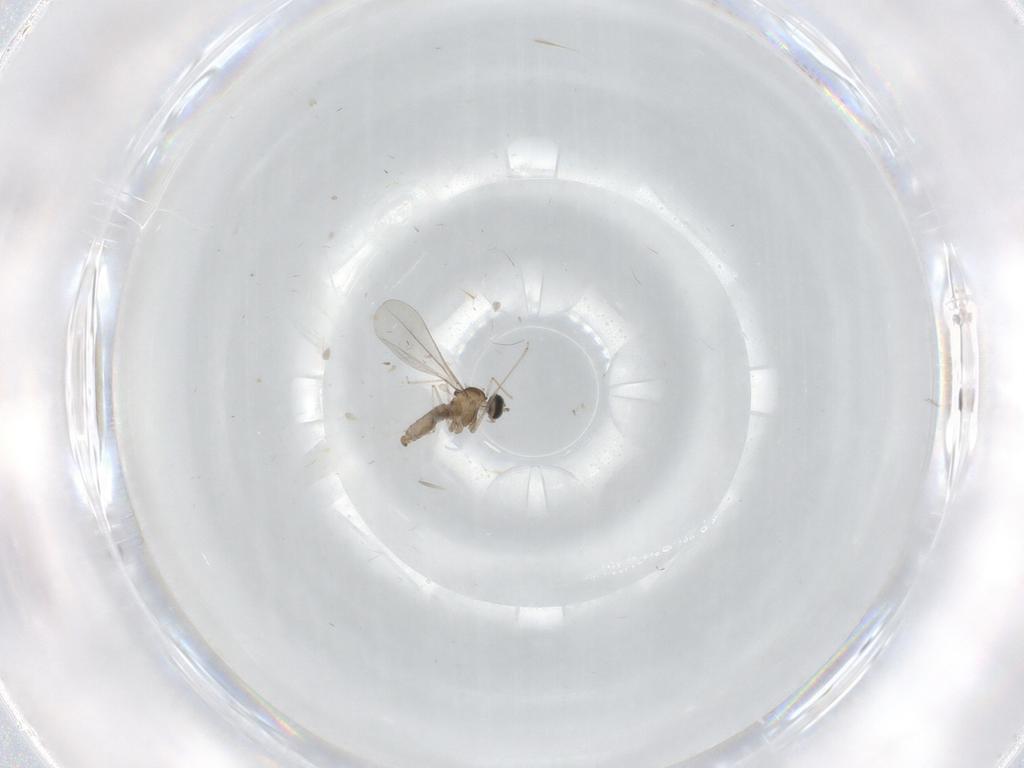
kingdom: Animalia
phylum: Arthropoda
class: Insecta
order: Diptera
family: Cecidomyiidae
